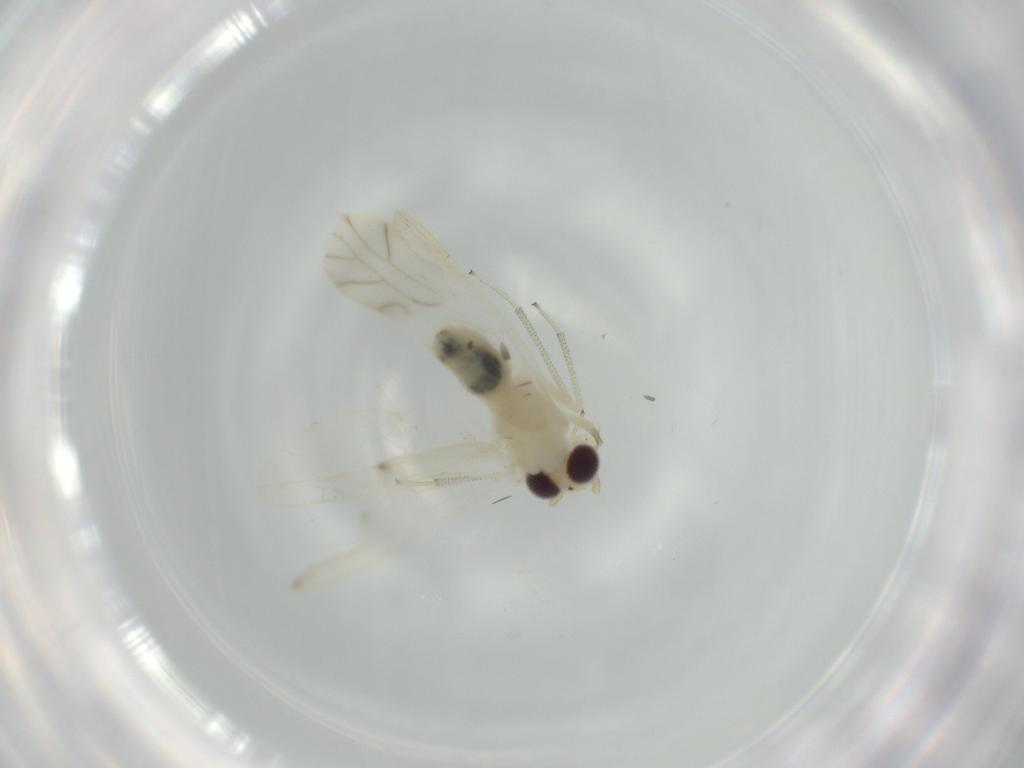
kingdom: Animalia
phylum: Arthropoda
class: Insecta
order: Psocodea
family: Caeciliusidae
